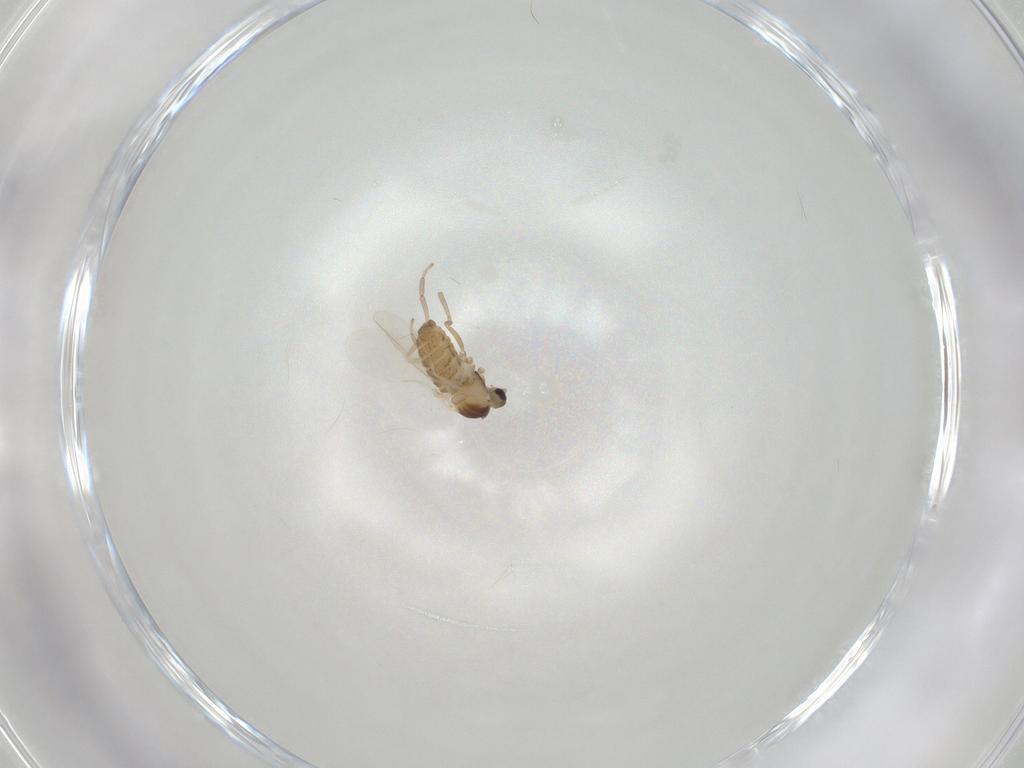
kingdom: Animalia
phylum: Arthropoda
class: Insecta
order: Diptera
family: Cecidomyiidae
